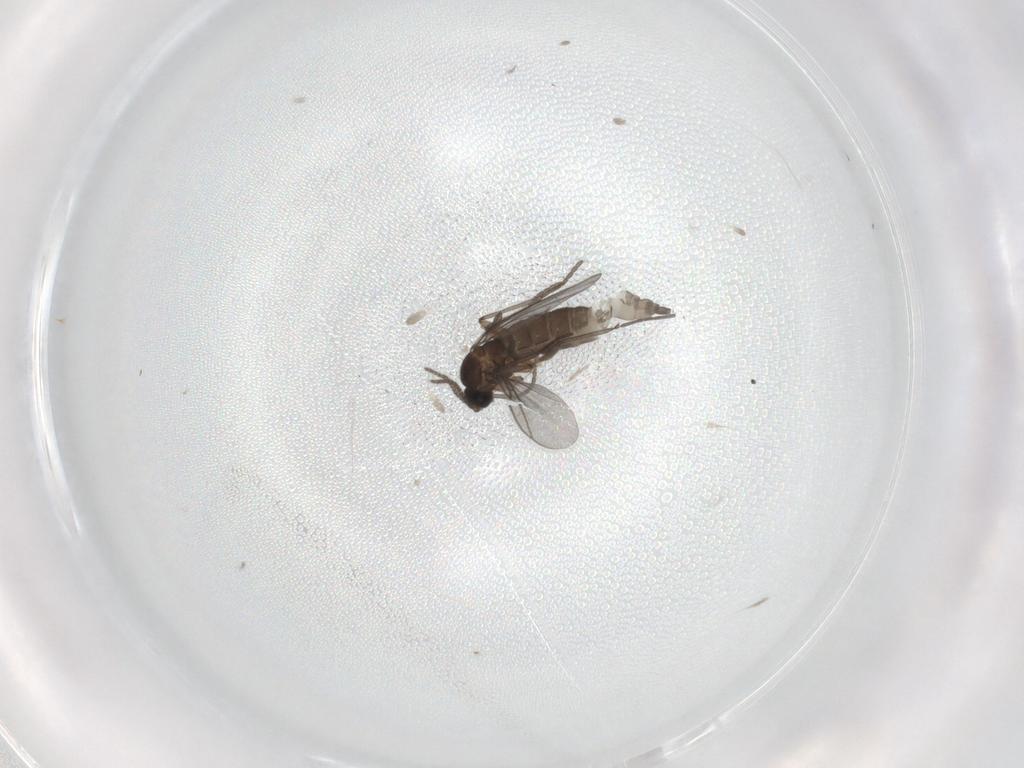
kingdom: Animalia
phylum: Arthropoda
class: Insecta
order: Diptera
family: Cecidomyiidae
